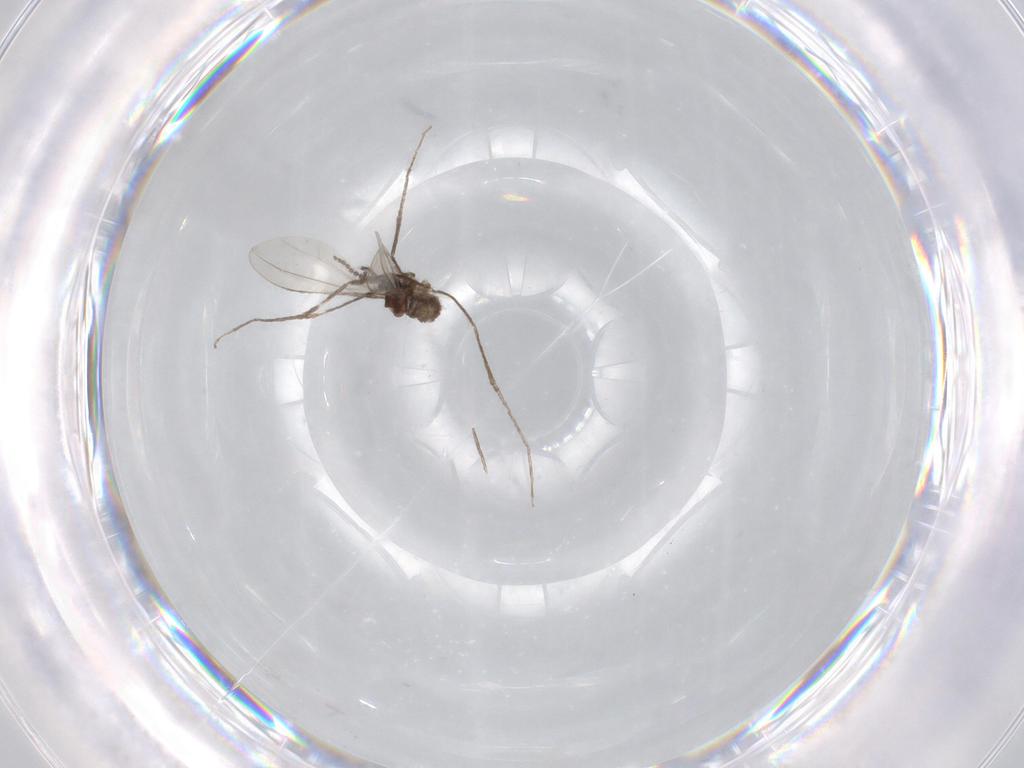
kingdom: Animalia
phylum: Arthropoda
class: Insecta
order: Diptera
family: Cecidomyiidae
